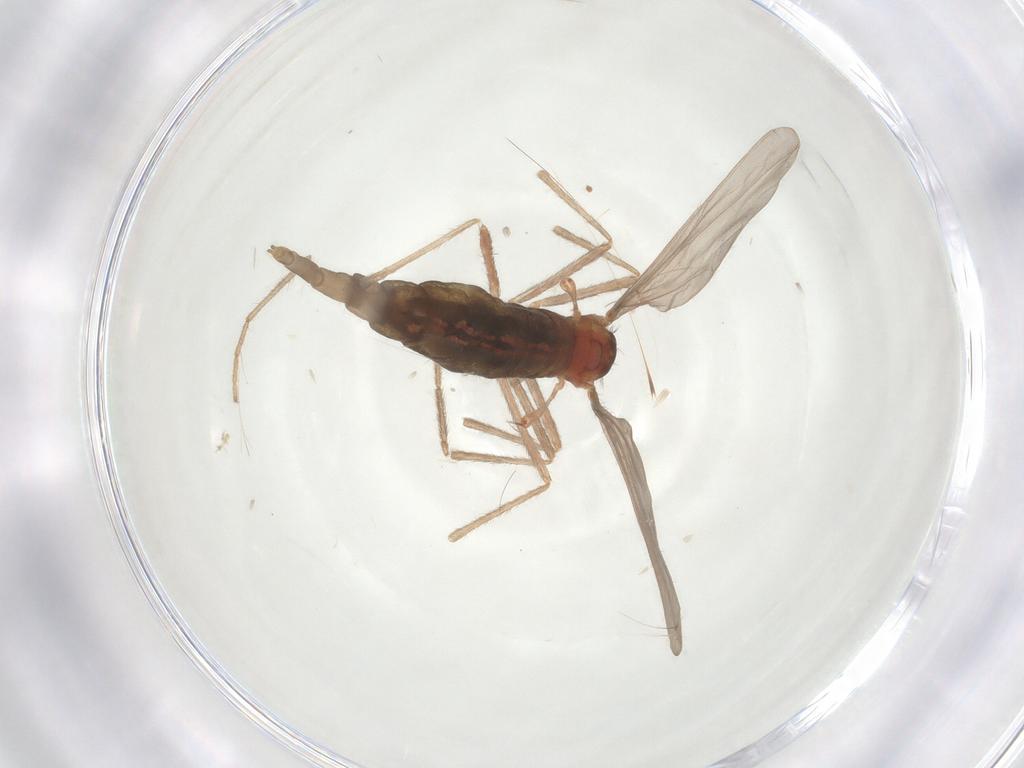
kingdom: Animalia
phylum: Arthropoda
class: Insecta
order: Diptera
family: Cecidomyiidae
